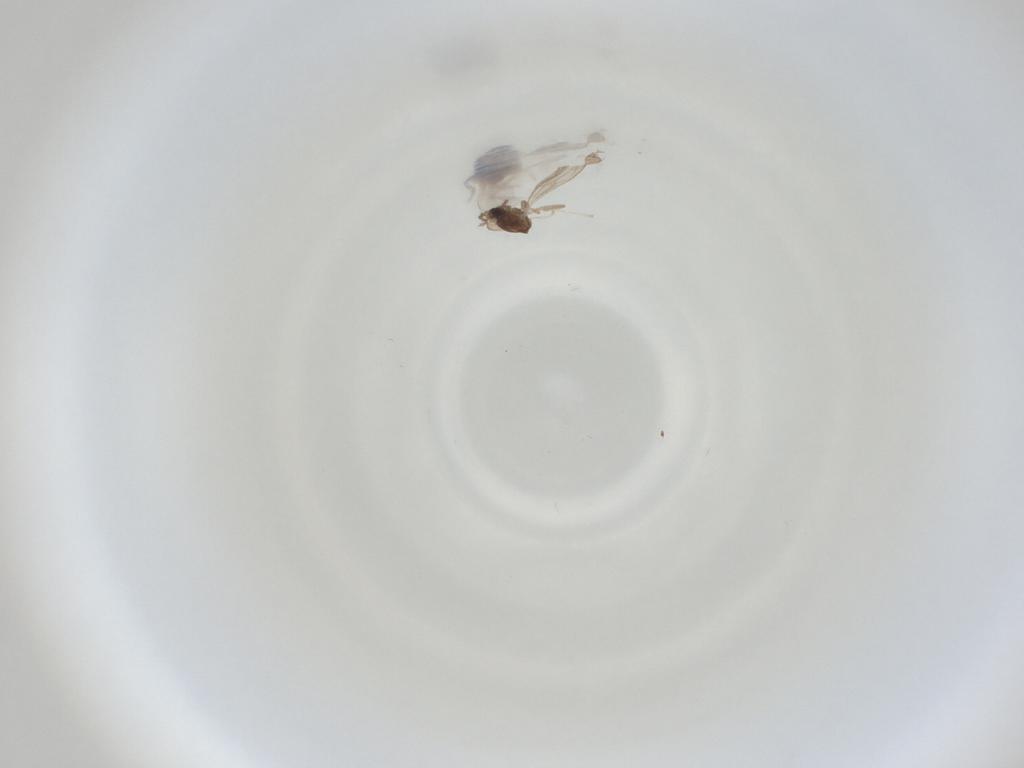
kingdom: Animalia
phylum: Arthropoda
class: Insecta
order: Diptera
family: Cecidomyiidae
